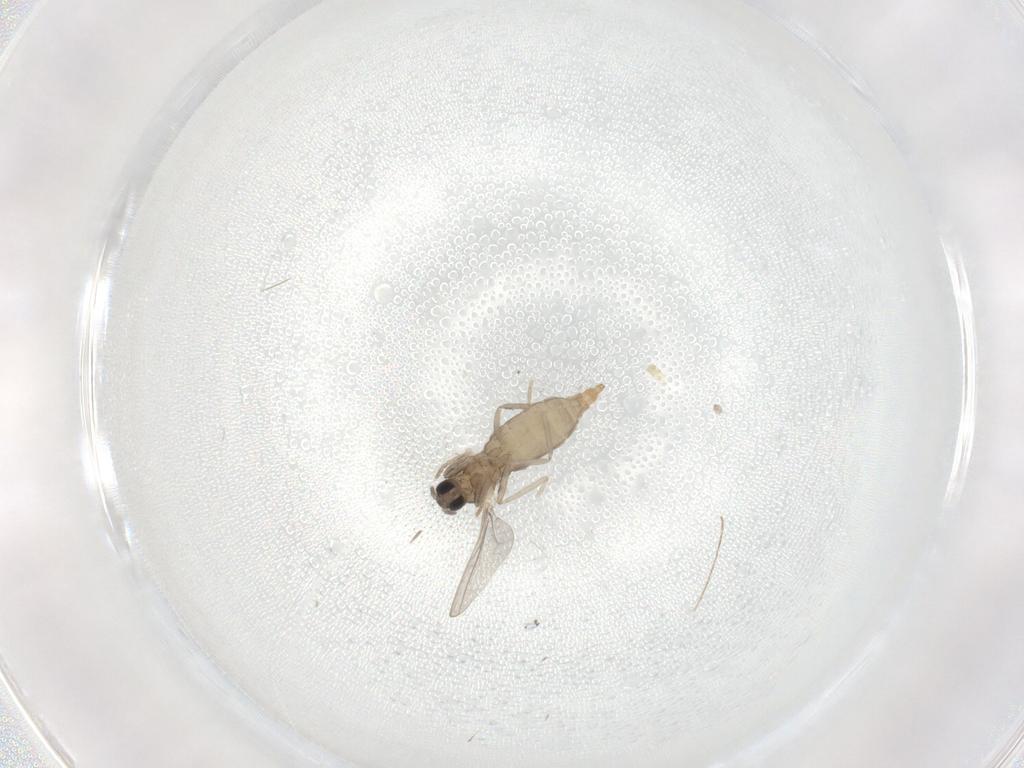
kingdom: Animalia
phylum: Arthropoda
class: Insecta
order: Diptera
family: Cecidomyiidae
